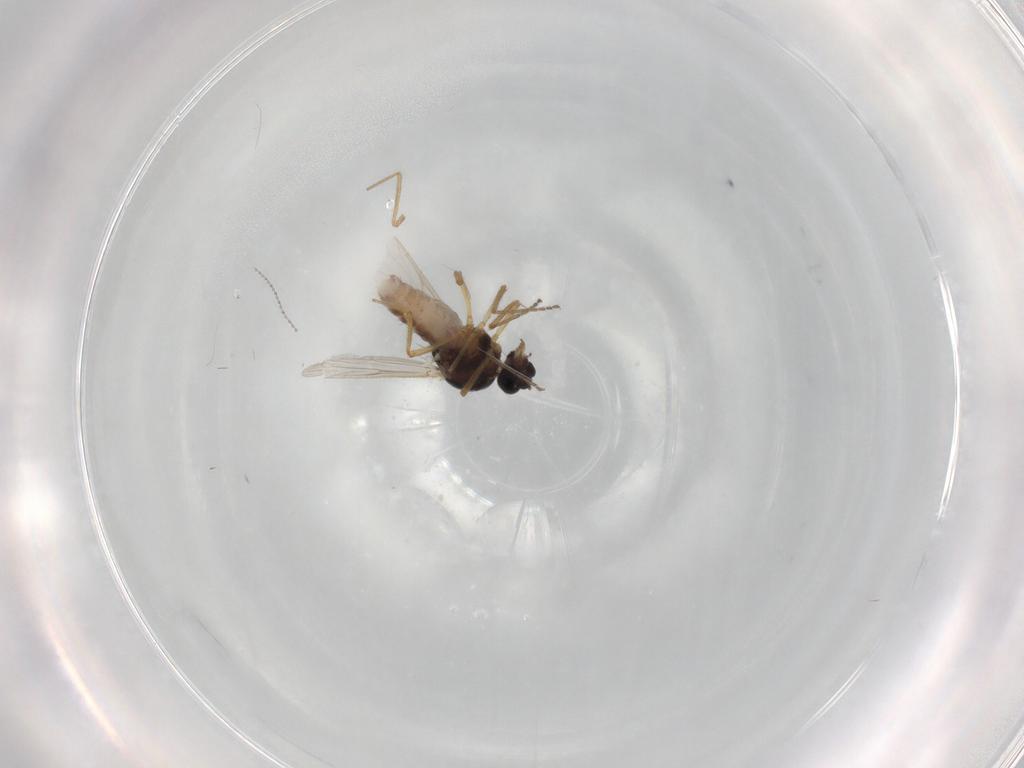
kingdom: Animalia
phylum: Arthropoda
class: Insecta
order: Diptera
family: Ceratopogonidae
